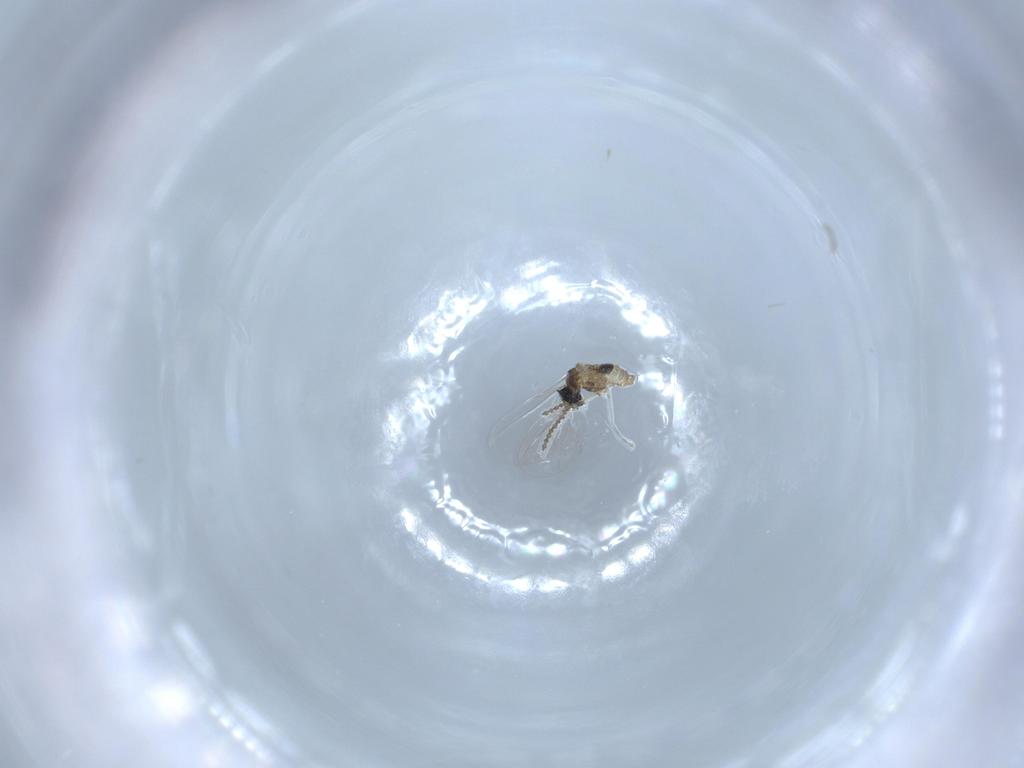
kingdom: Animalia
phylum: Arthropoda
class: Insecta
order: Diptera
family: Cecidomyiidae
